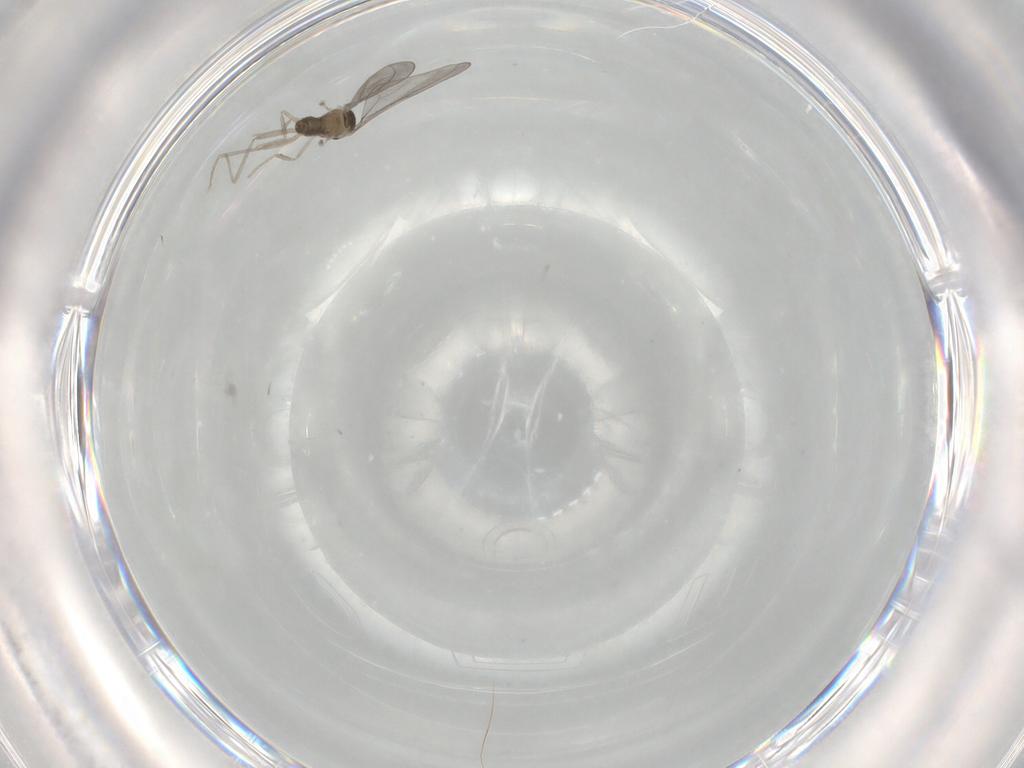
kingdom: Animalia
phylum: Arthropoda
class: Insecta
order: Diptera
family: Cecidomyiidae
